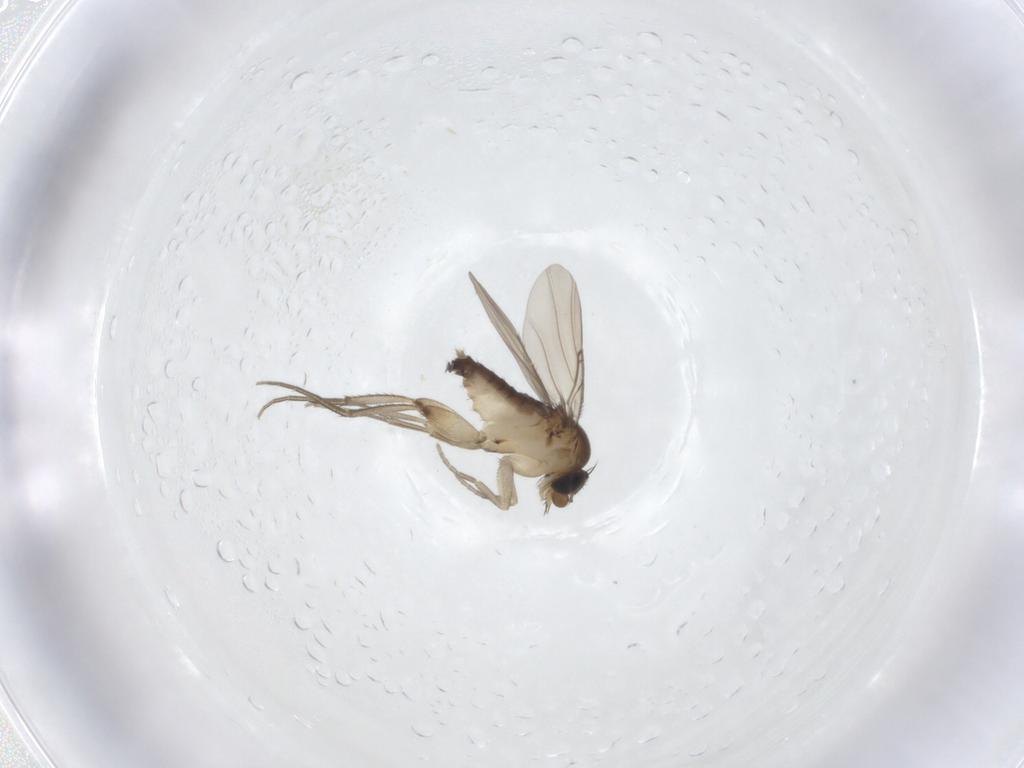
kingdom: Animalia
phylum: Arthropoda
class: Insecta
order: Diptera
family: Phoridae
